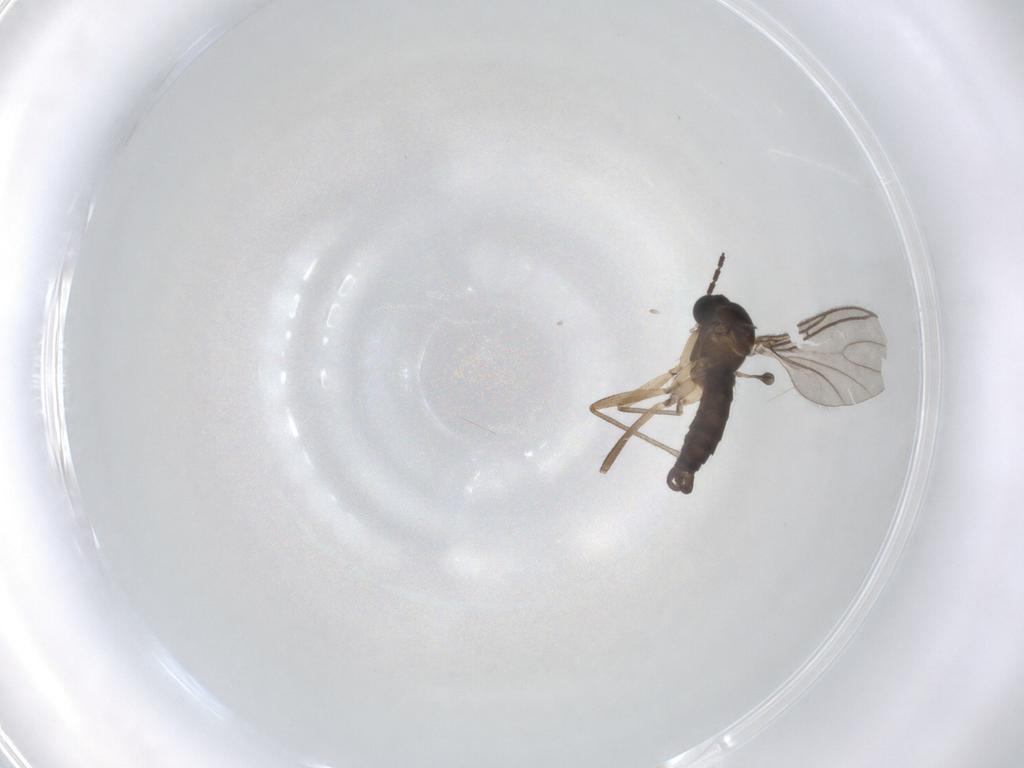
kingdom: Animalia
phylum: Arthropoda
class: Insecta
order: Diptera
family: Sciaridae
